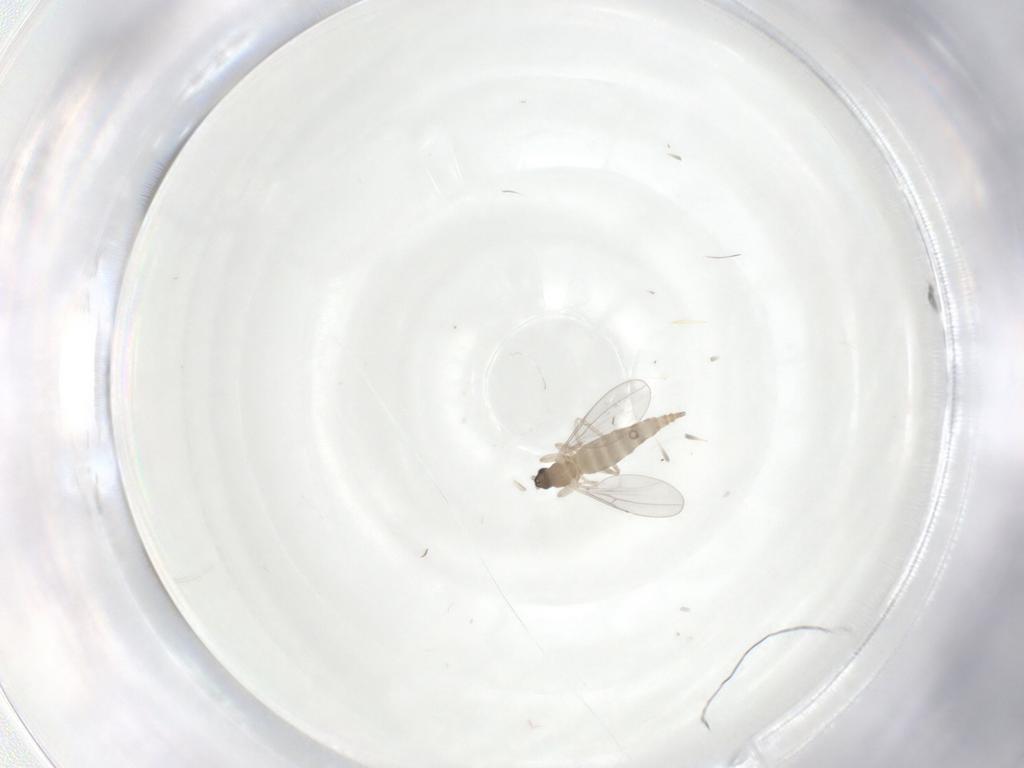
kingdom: Animalia
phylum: Arthropoda
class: Insecta
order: Diptera
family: Cecidomyiidae
